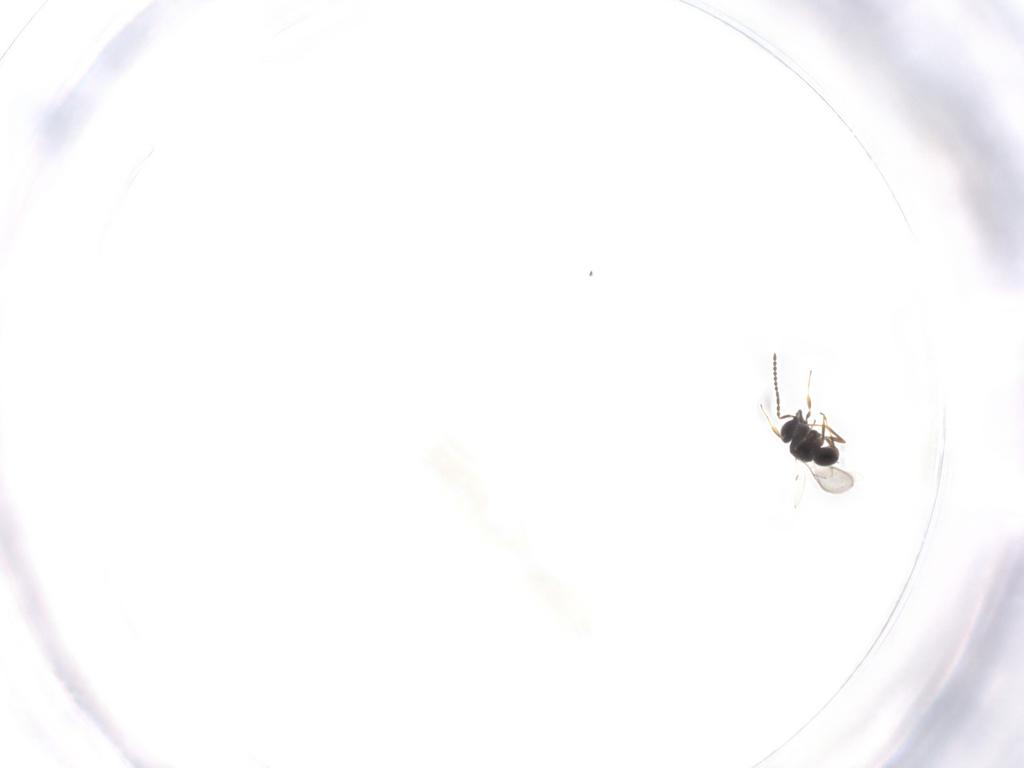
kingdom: Animalia
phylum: Arthropoda
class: Insecta
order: Hymenoptera
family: Scelionidae
